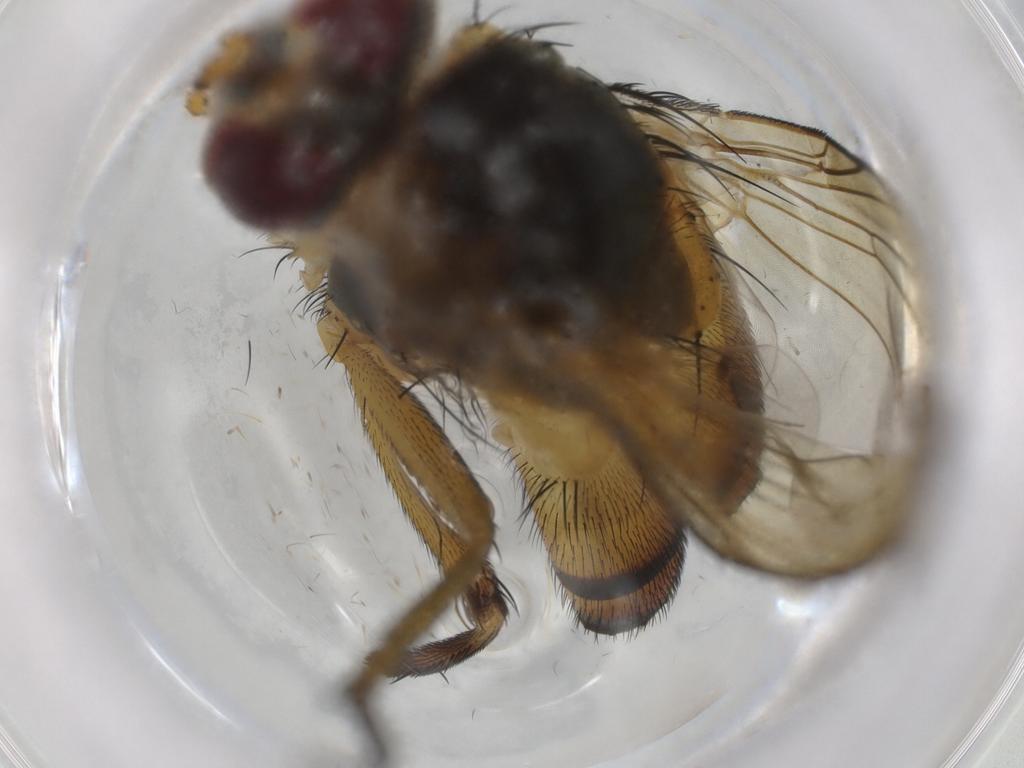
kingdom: Animalia
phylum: Arthropoda
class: Insecta
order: Diptera
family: Chironomidae
